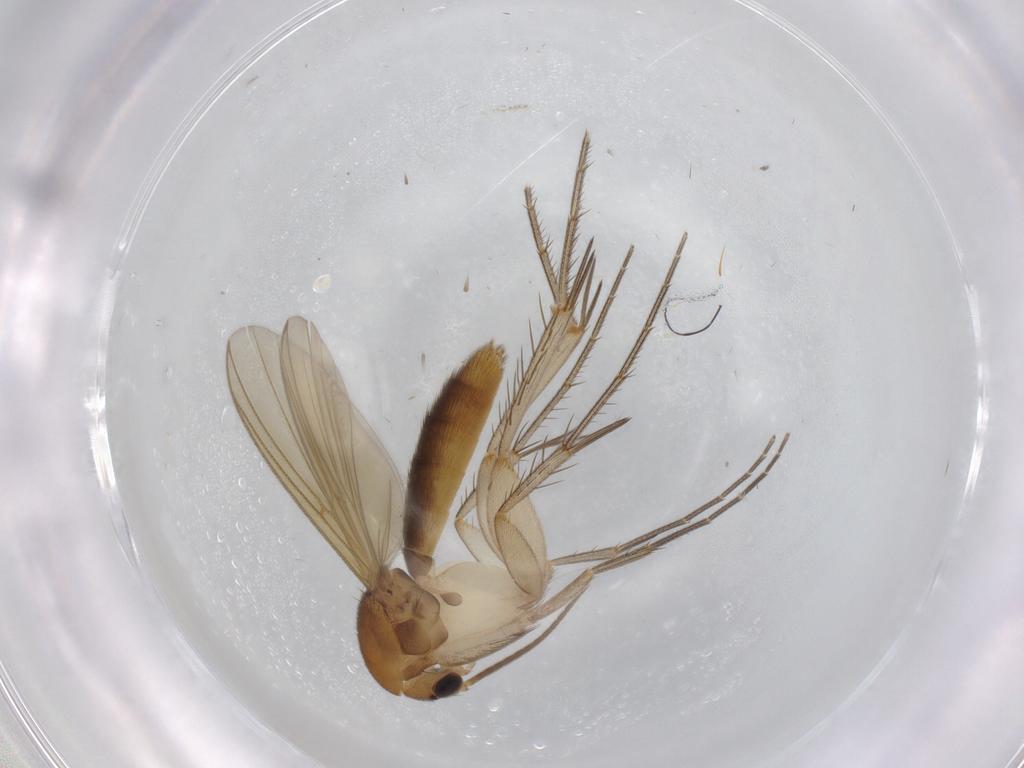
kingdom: Animalia
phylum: Arthropoda
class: Insecta
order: Diptera
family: Mycetophilidae
